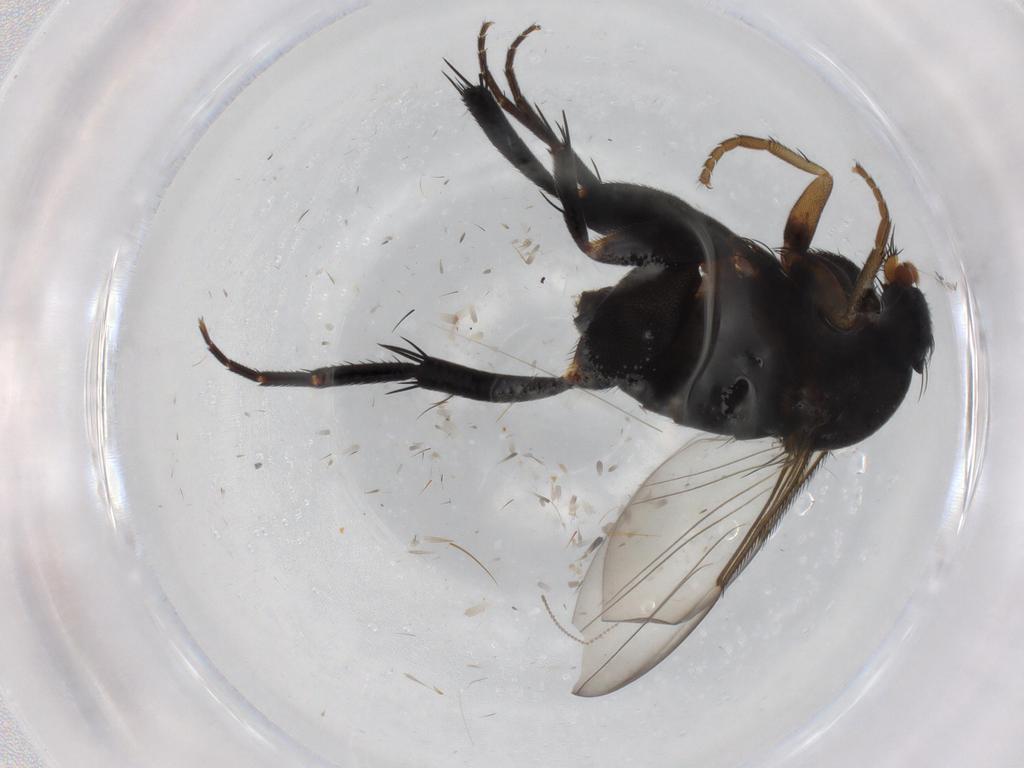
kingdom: Animalia
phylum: Arthropoda
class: Insecta
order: Diptera
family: Phoridae
